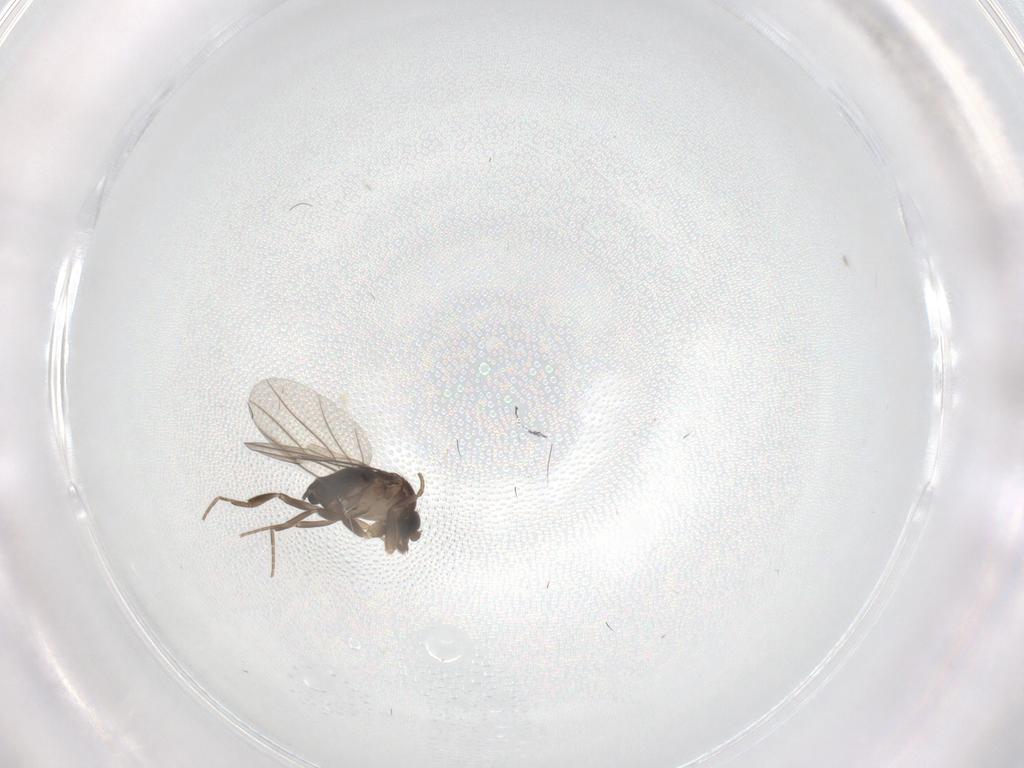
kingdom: Animalia
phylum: Arthropoda
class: Insecta
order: Diptera
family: Phoridae
